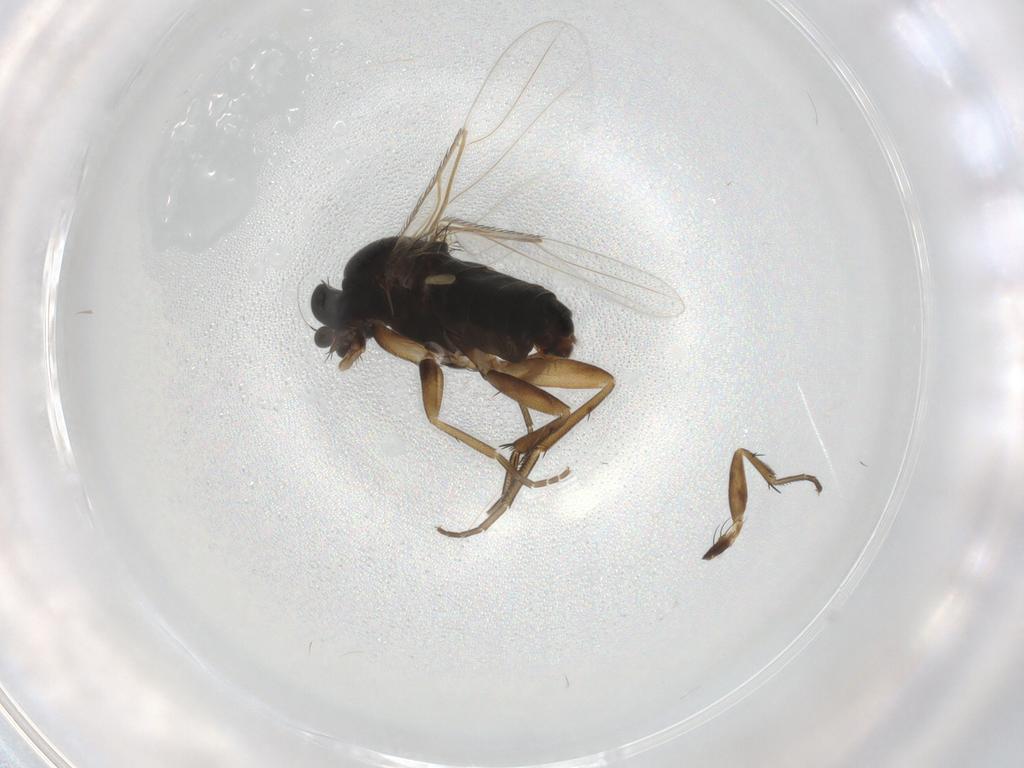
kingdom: Animalia
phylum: Arthropoda
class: Insecta
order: Diptera
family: Phoridae
